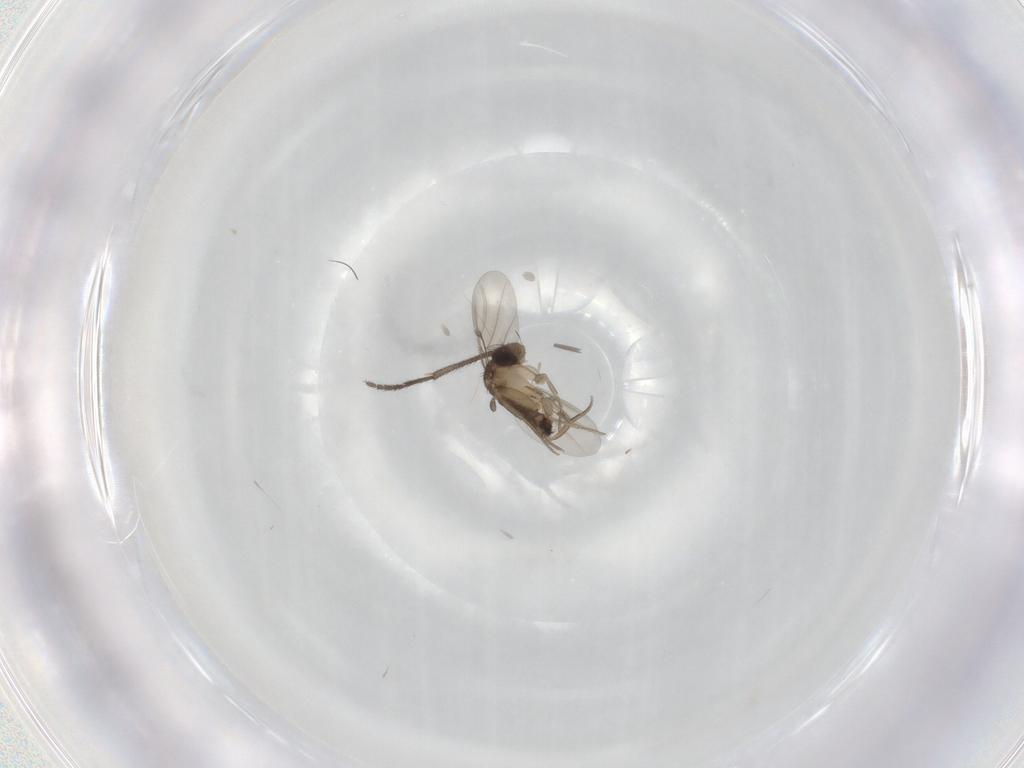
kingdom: Animalia
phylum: Arthropoda
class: Insecta
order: Diptera
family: Phoridae
